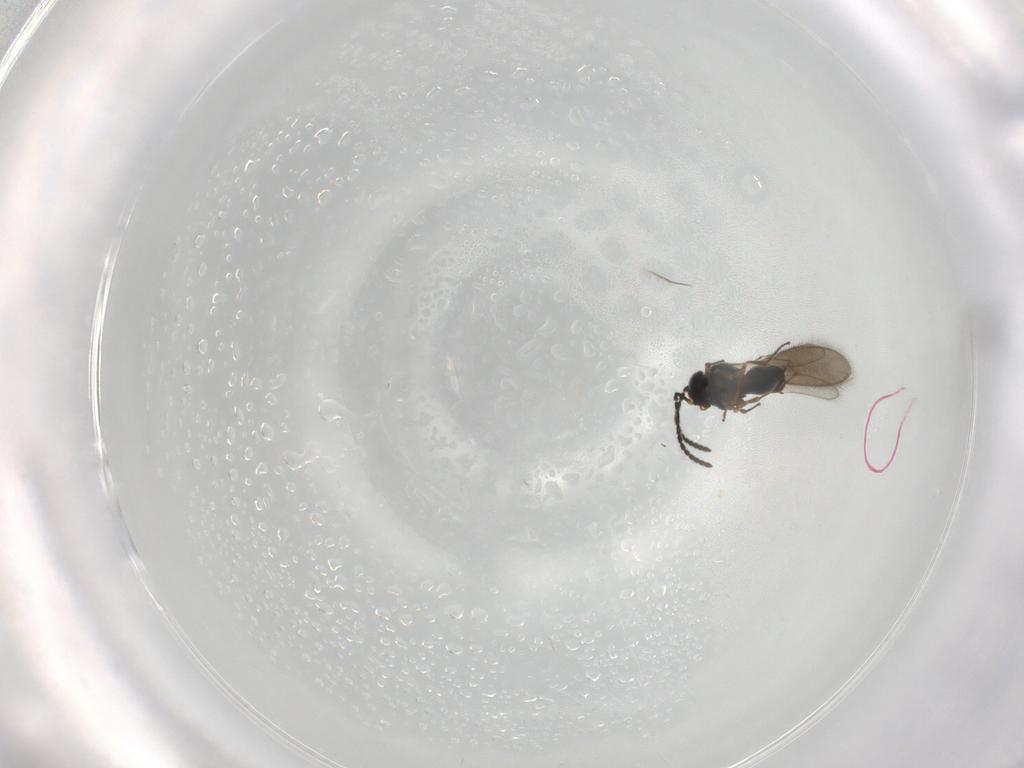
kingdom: Animalia
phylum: Arthropoda
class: Insecta
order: Hymenoptera
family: Scelionidae
